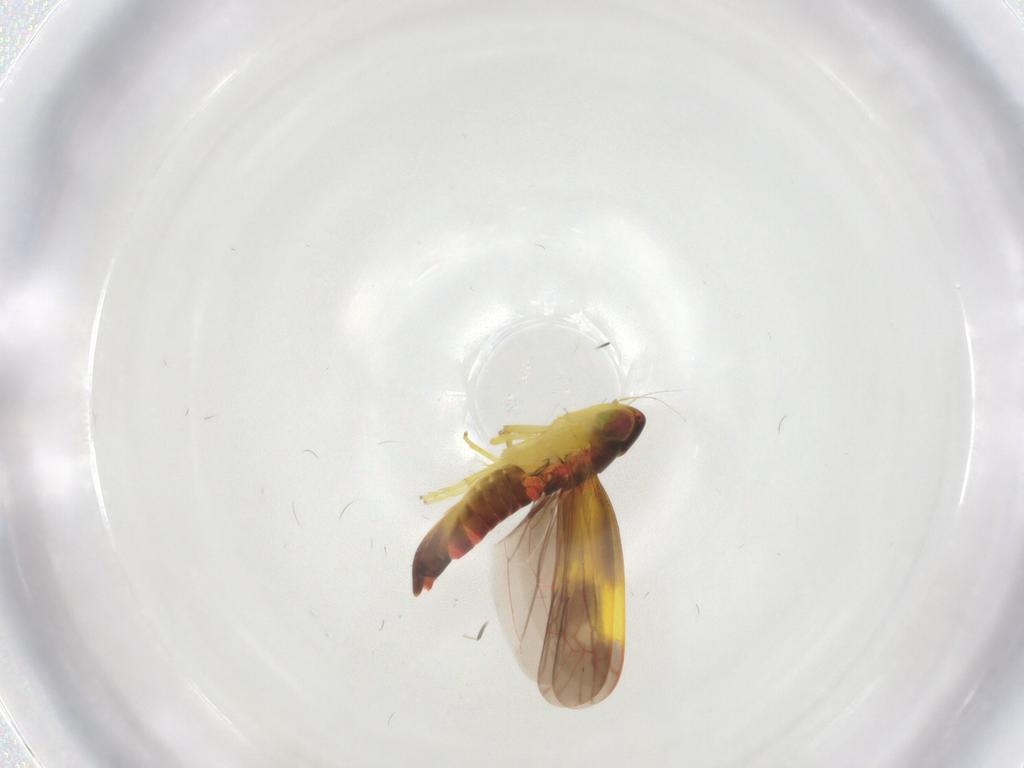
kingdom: Animalia
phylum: Arthropoda
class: Insecta
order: Hemiptera
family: Cicadellidae
